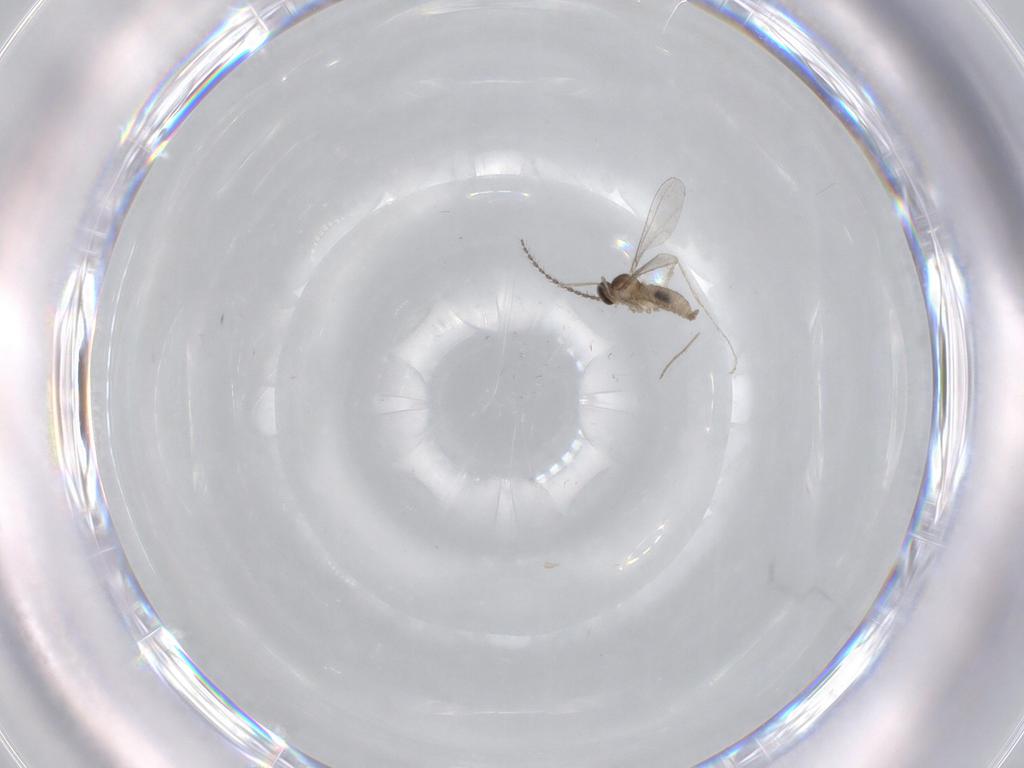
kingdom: Animalia
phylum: Arthropoda
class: Insecta
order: Diptera
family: Chironomidae
